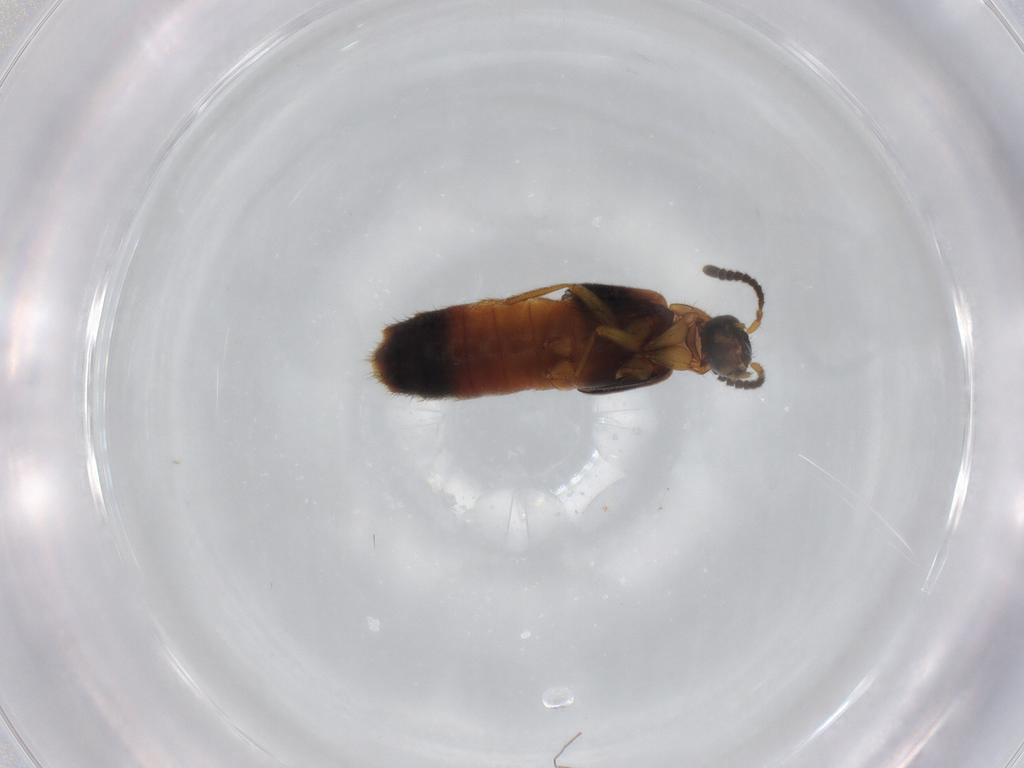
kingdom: Animalia
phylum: Arthropoda
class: Insecta
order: Coleoptera
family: Staphylinidae
